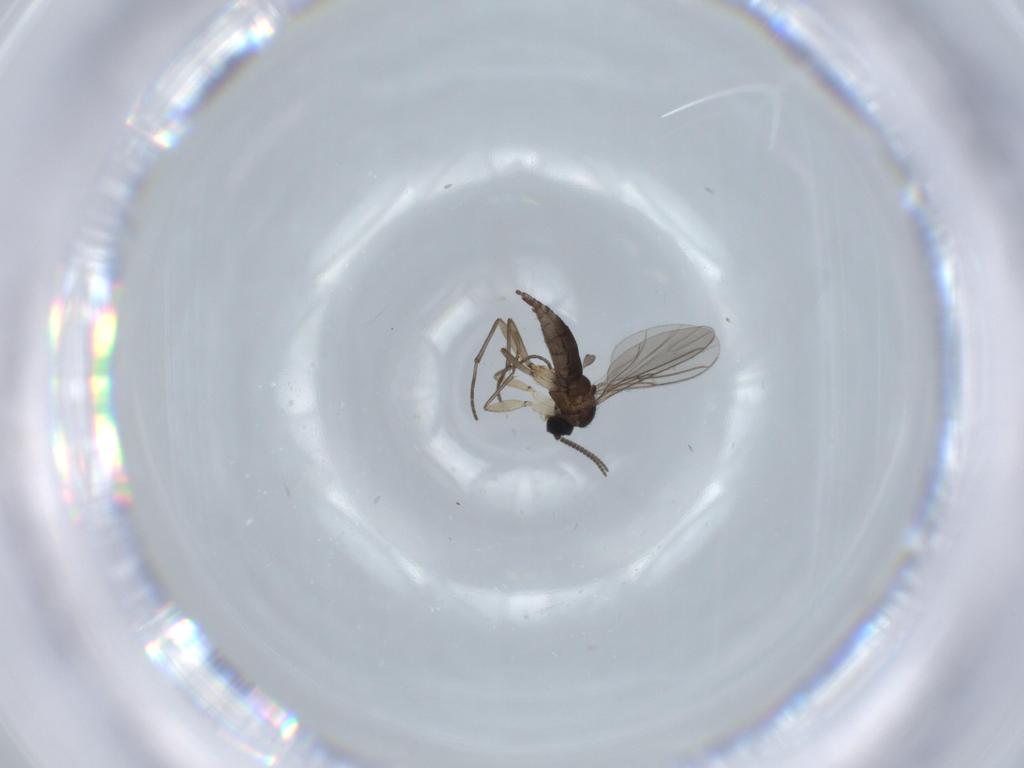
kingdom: Animalia
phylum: Arthropoda
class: Insecta
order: Diptera
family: Sciaridae
